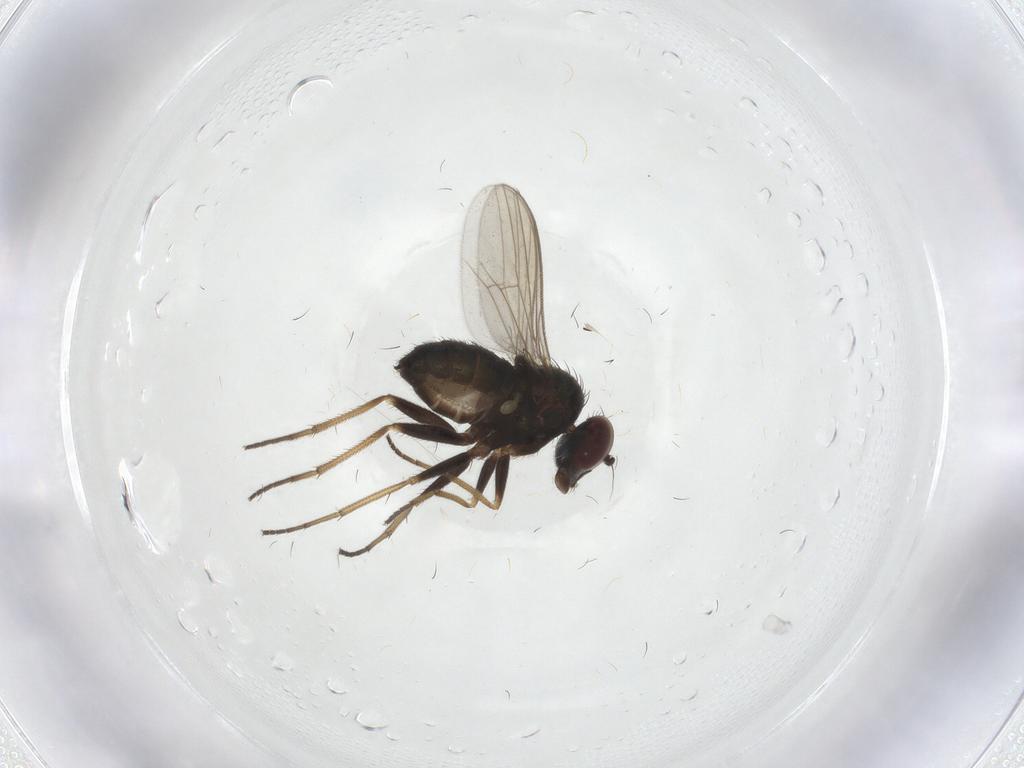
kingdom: Animalia
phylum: Arthropoda
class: Insecta
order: Diptera
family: Dolichopodidae
